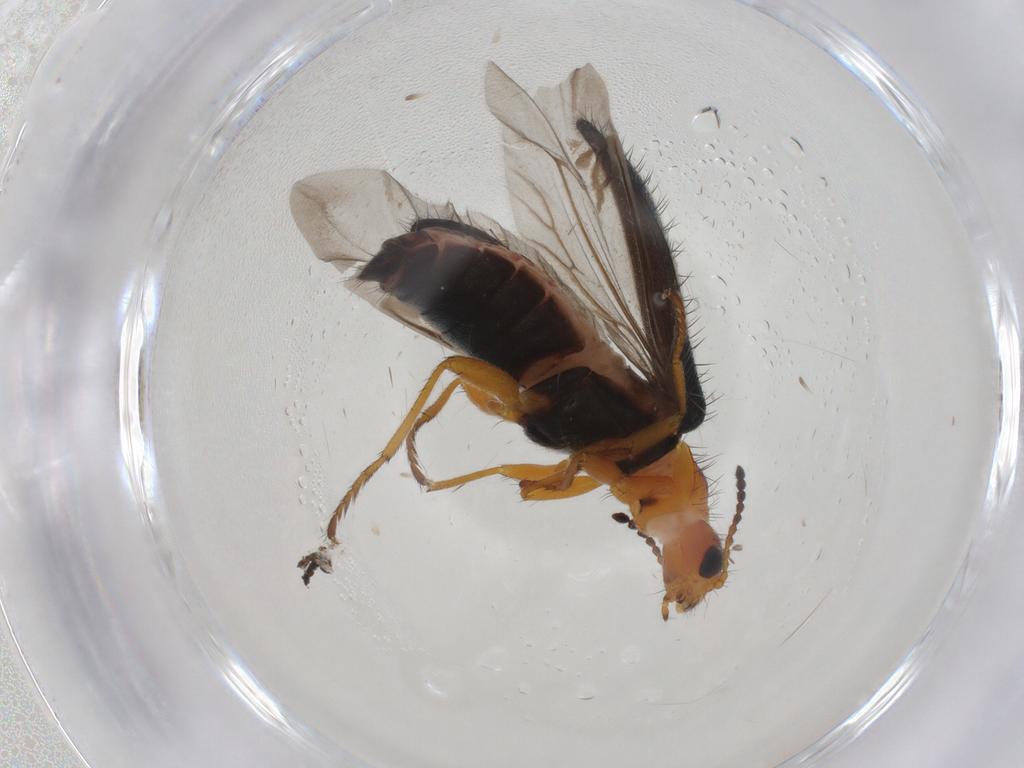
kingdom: Animalia
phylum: Arthropoda
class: Insecta
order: Coleoptera
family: Melyridae
